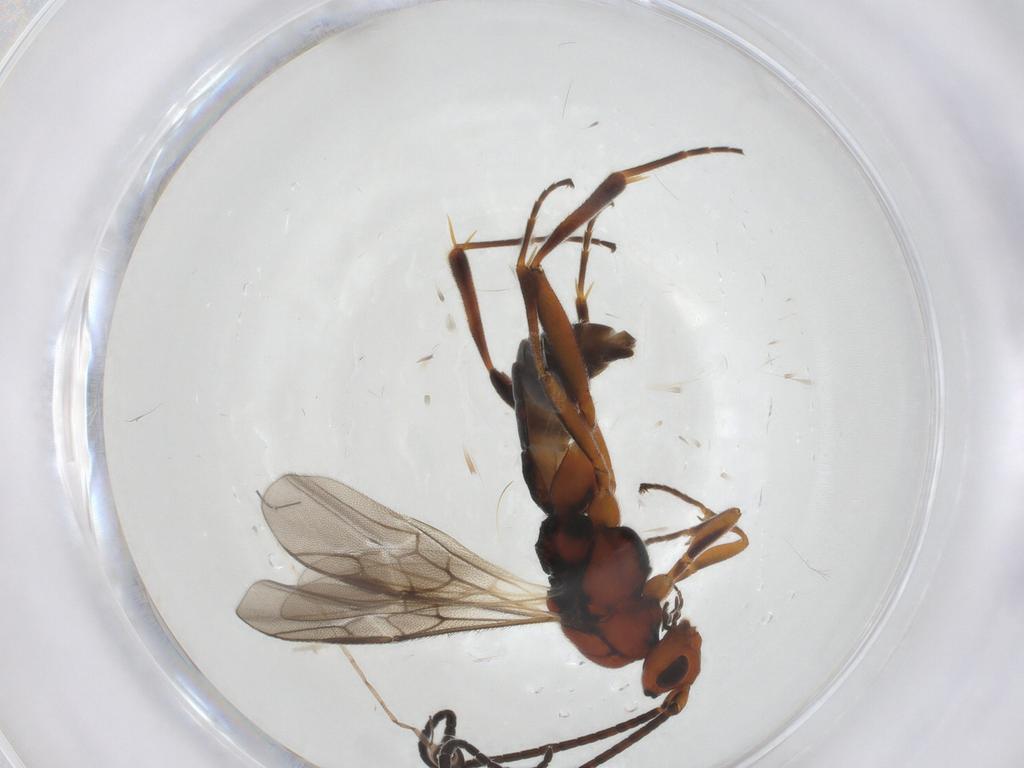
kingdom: Animalia
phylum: Arthropoda
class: Insecta
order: Hymenoptera
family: Braconidae
